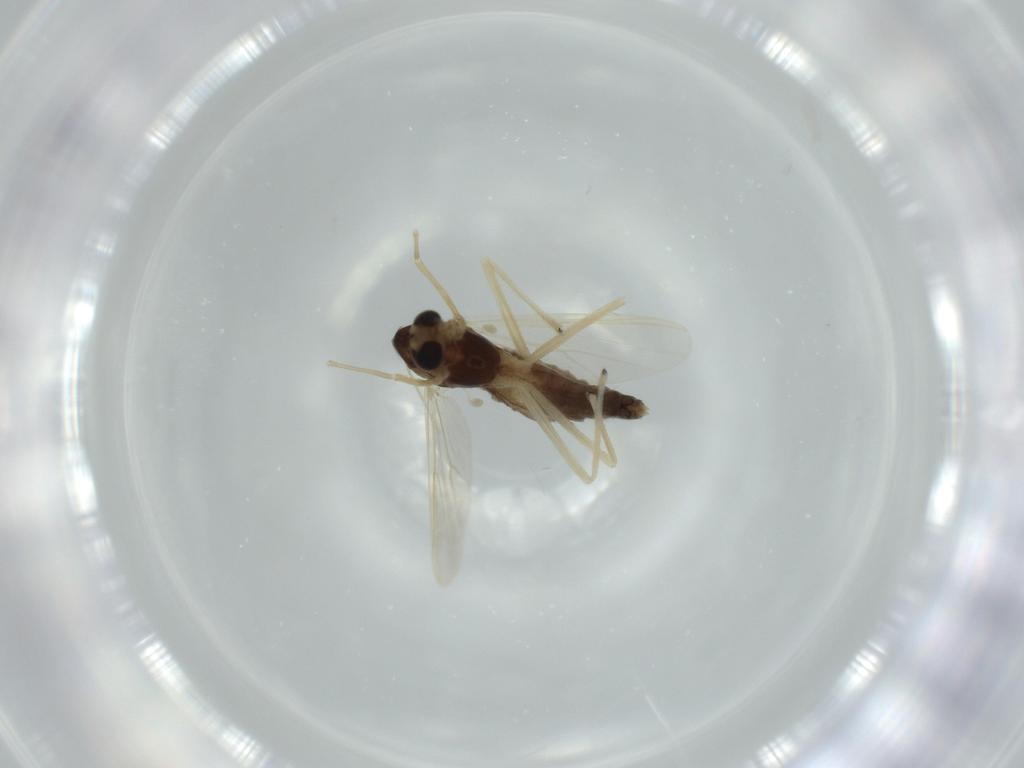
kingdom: Animalia
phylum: Arthropoda
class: Insecta
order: Diptera
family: Chironomidae
